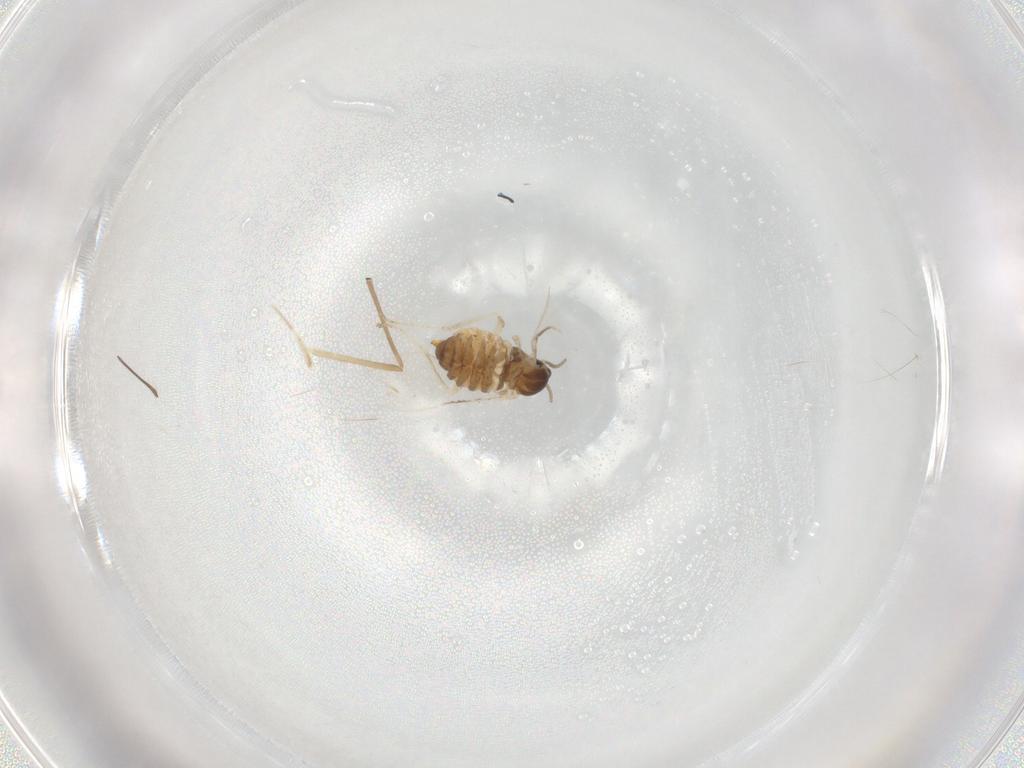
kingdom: Animalia
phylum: Arthropoda
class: Insecta
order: Diptera
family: Cecidomyiidae
